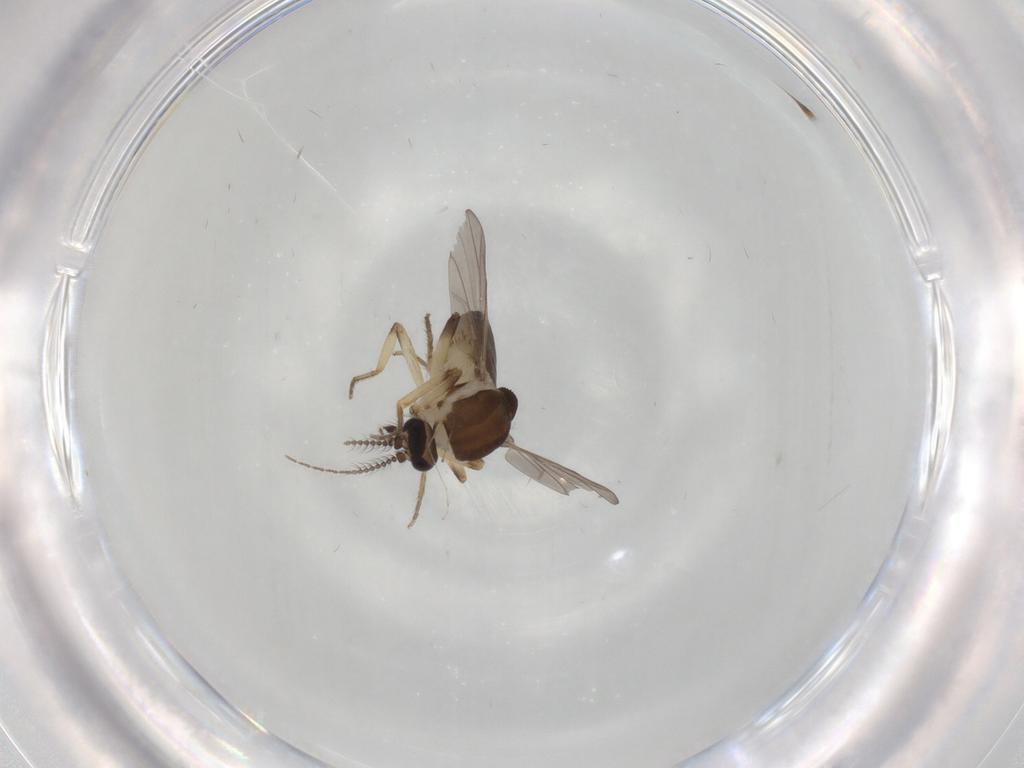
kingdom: Animalia
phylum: Arthropoda
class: Insecta
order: Diptera
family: Ceratopogonidae
